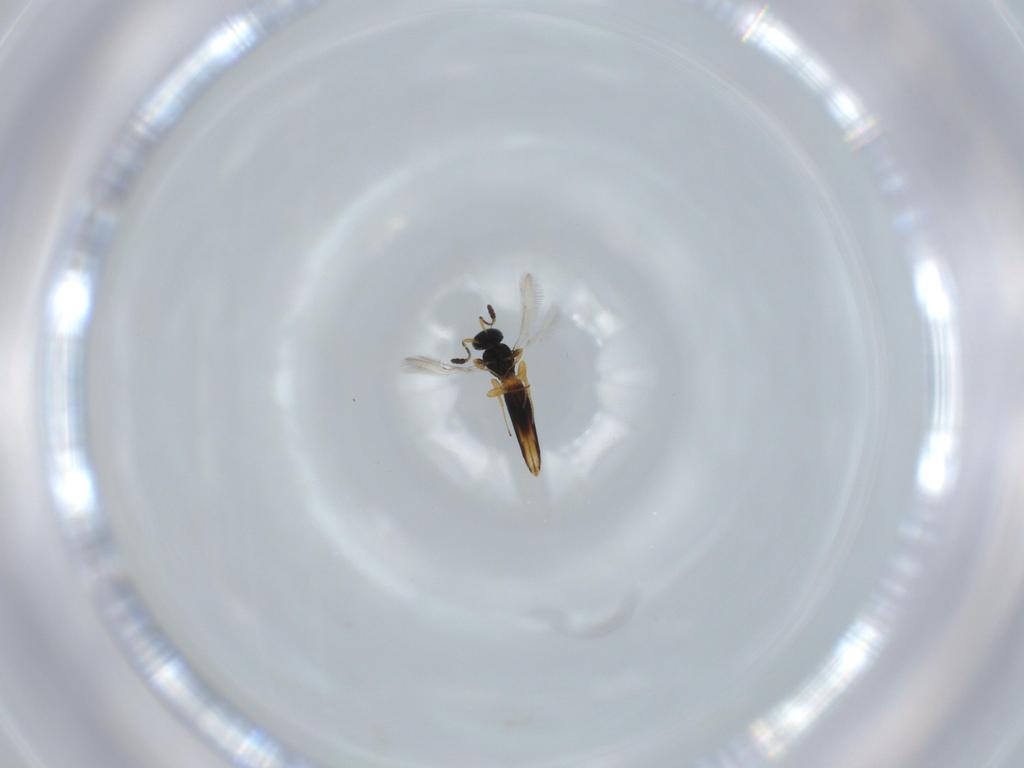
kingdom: Animalia
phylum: Arthropoda
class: Insecta
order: Hymenoptera
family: Scelionidae
